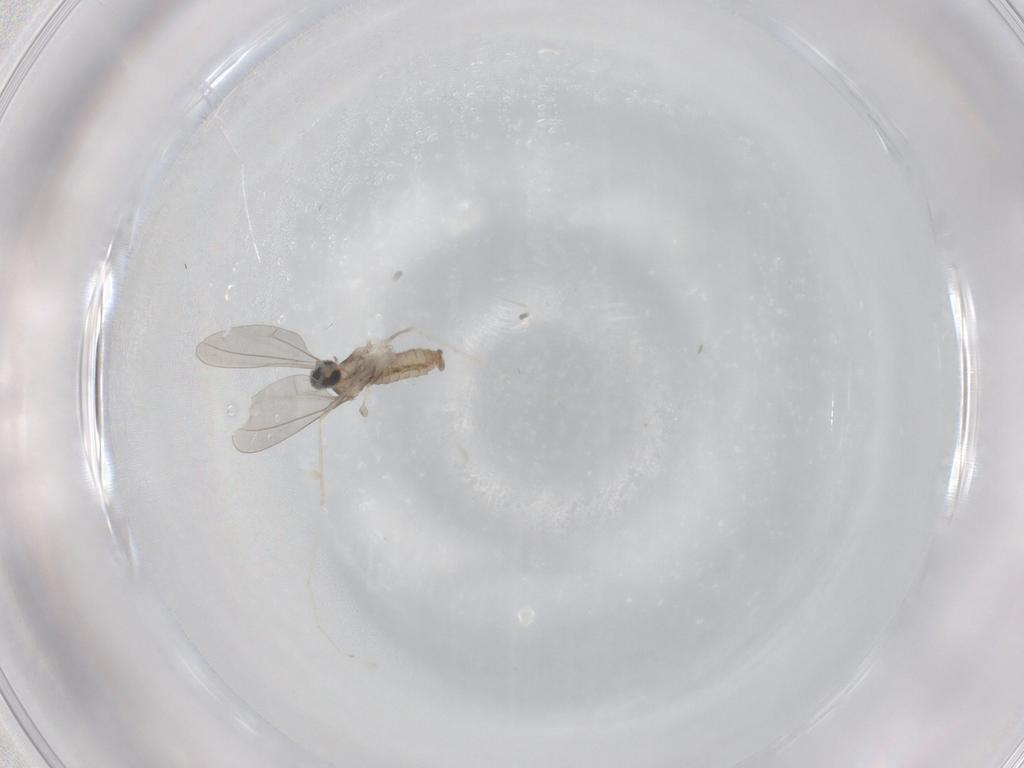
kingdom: Animalia
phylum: Arthropoda
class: Insecta
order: Diptera
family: Cecidomyiidae
